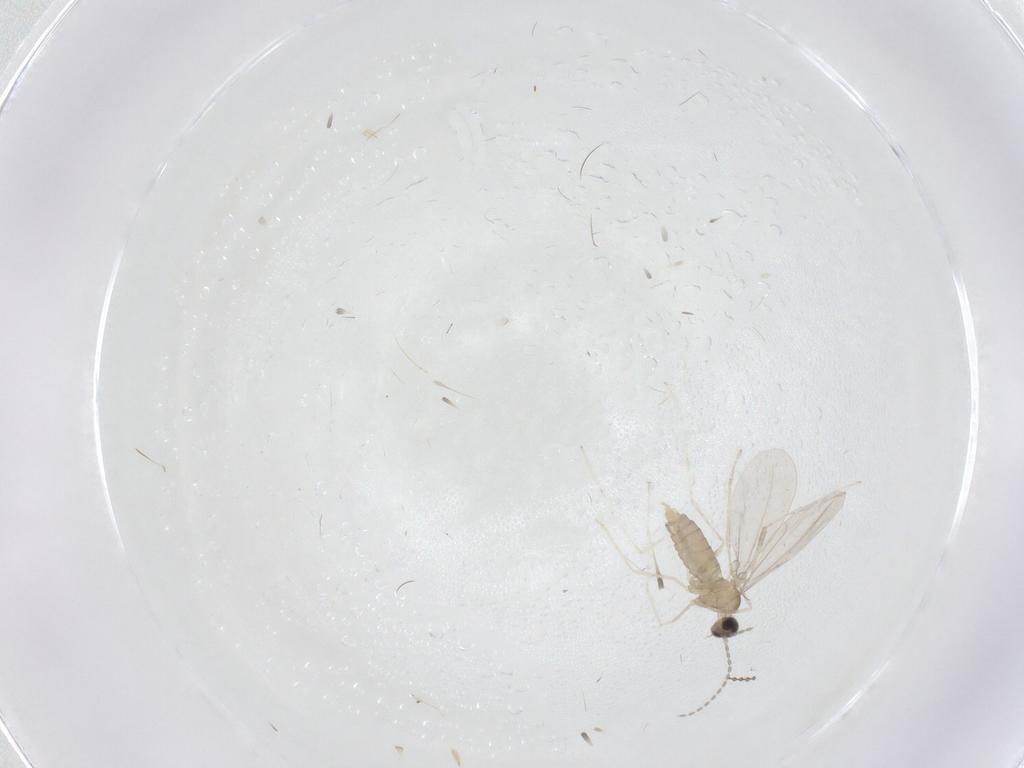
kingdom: Animalia
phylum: Arthropoda
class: Insecta
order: Diptera
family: Cecidomyiidae
